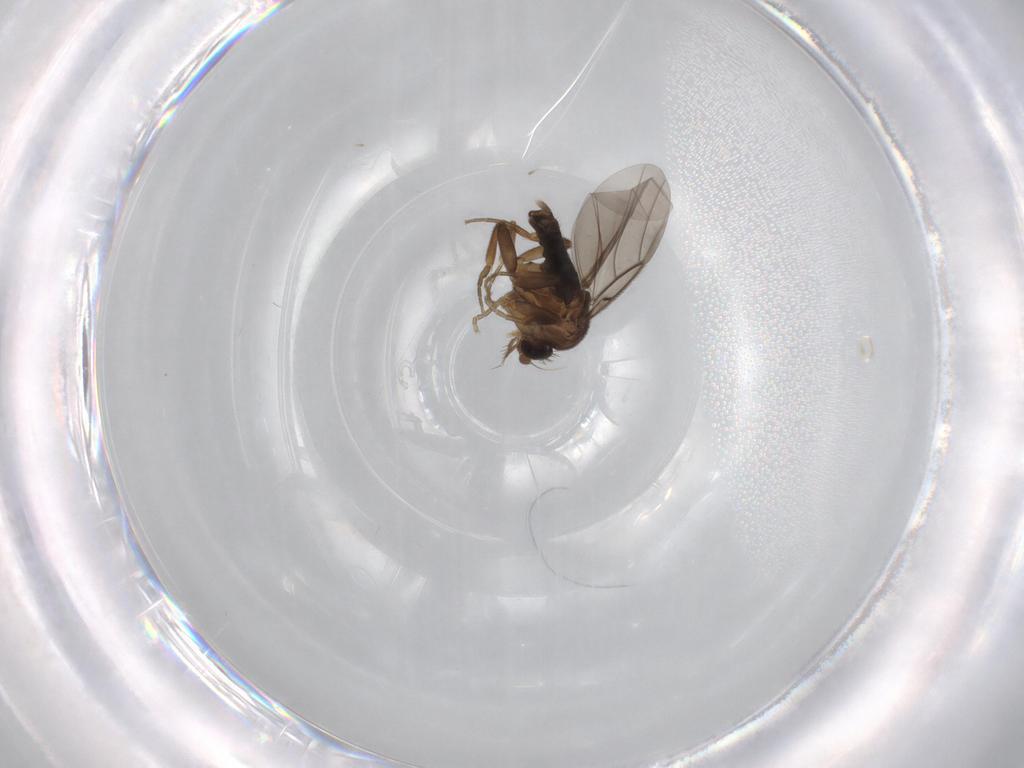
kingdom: Animalia
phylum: Arthropoda
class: Insecta
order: Diptera
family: Phoridae
